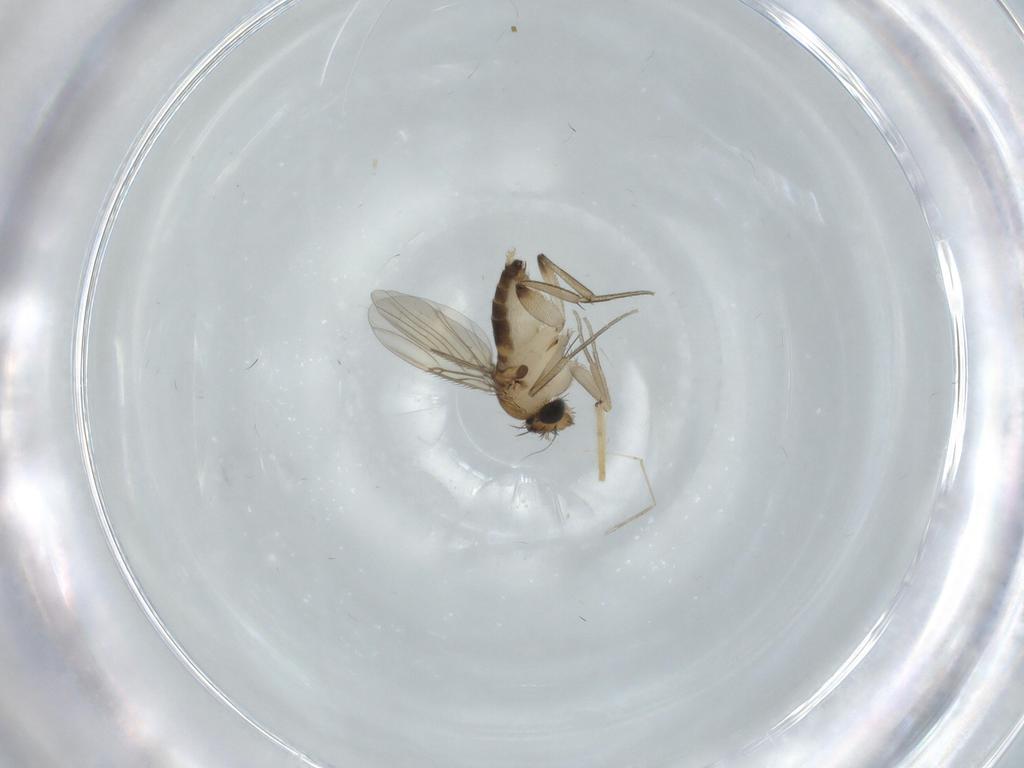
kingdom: Animalia
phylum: Arthropoda
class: Insecta
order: Diptera
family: Phoridae
